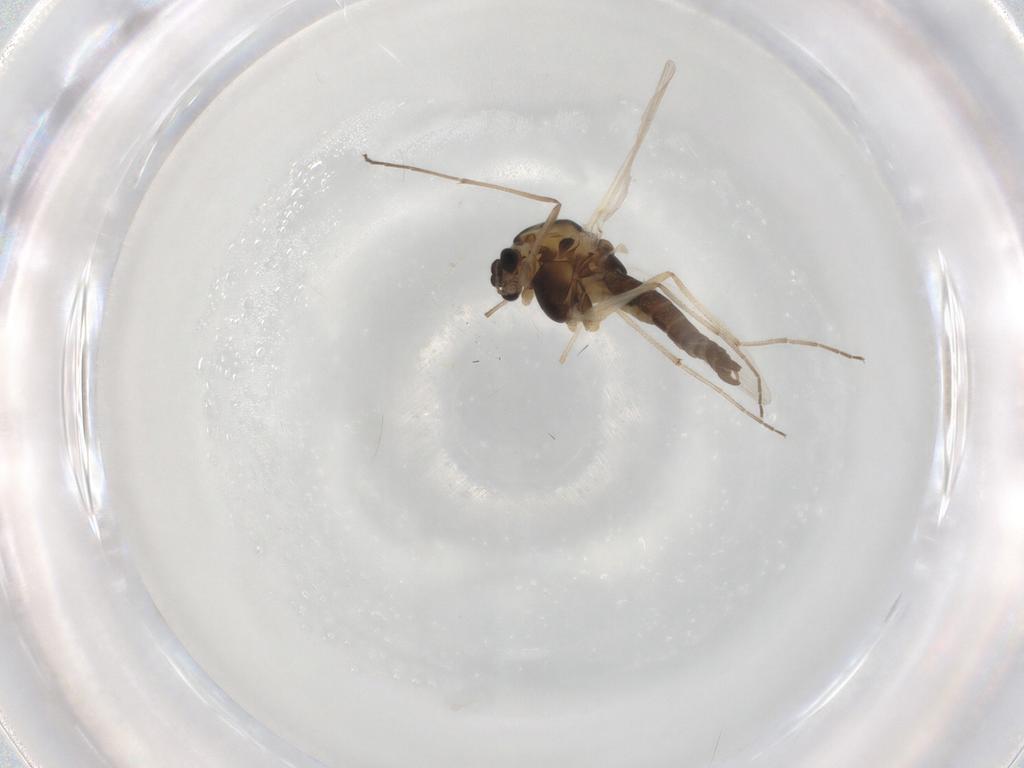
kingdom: Animalia
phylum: Arthropoda
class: Insecta
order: Diptera
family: Chironomidae
